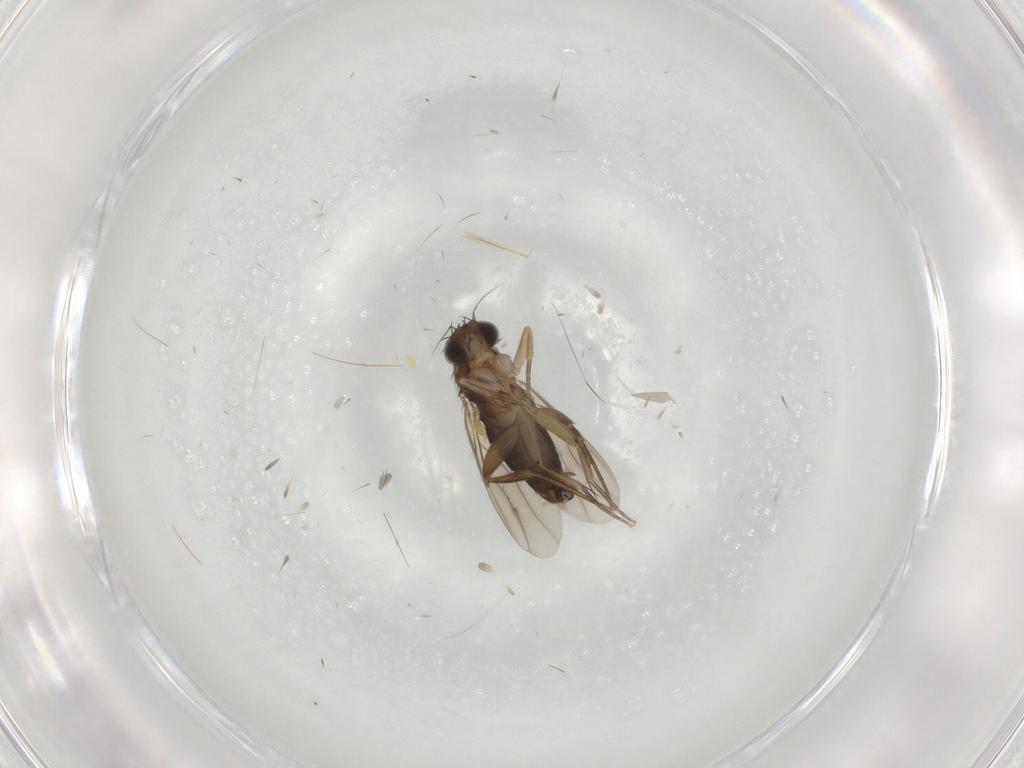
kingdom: Animalia
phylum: Arthropoda
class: Insecta
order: Diptera
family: Phoridae
